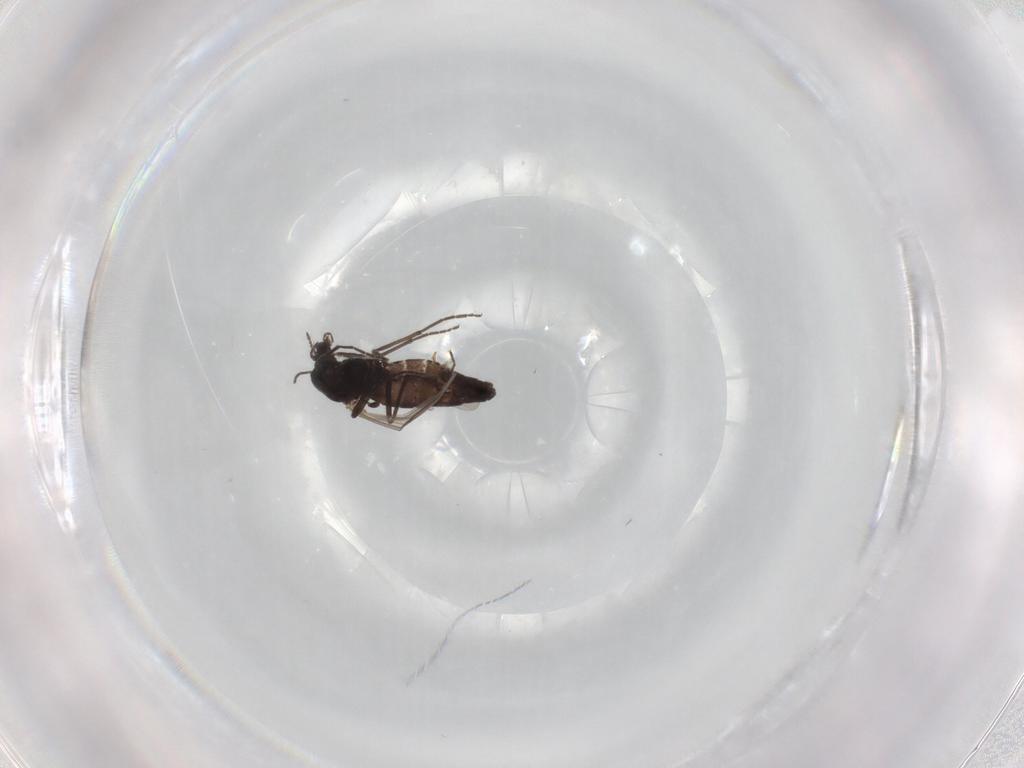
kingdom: Animalia
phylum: Arthropoda
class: Insecta
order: Diptera
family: Chironomidae
